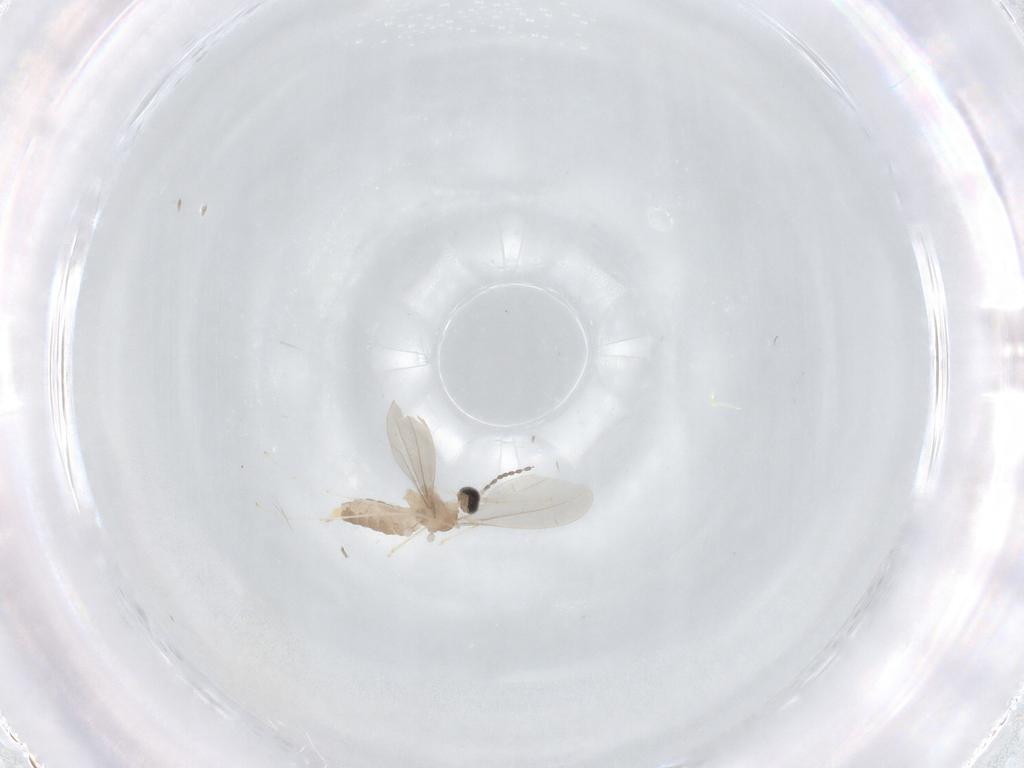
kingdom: Animalia
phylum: Arthropoda
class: Insecta
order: Diptera
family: Cecidomyiidae
